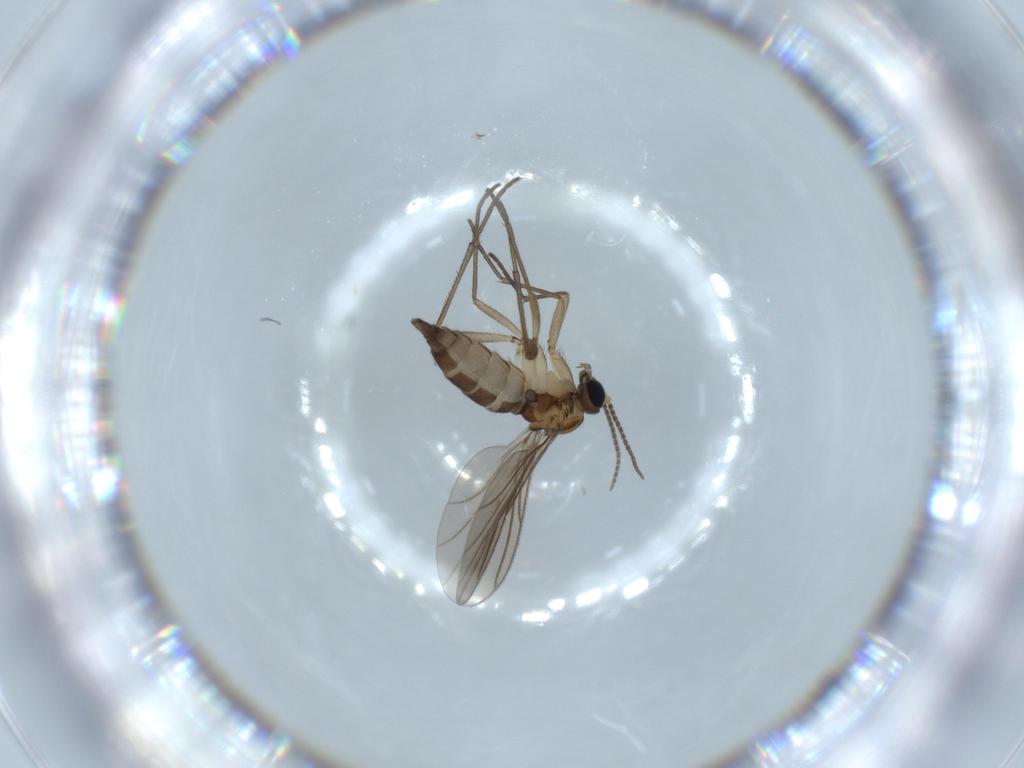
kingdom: Animalia
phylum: Arthropoda
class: Insecta
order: Diptera
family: Sciaridae
